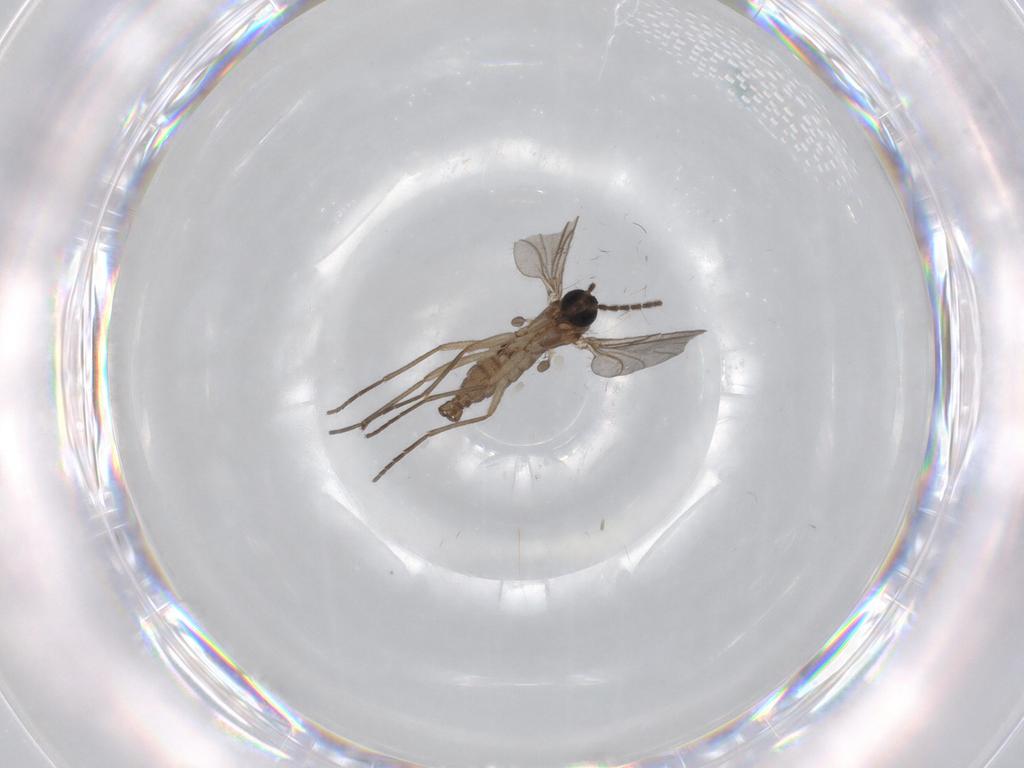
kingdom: Animalia
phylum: Arthropoda
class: Insecta
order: Diptera
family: Sciaridae
